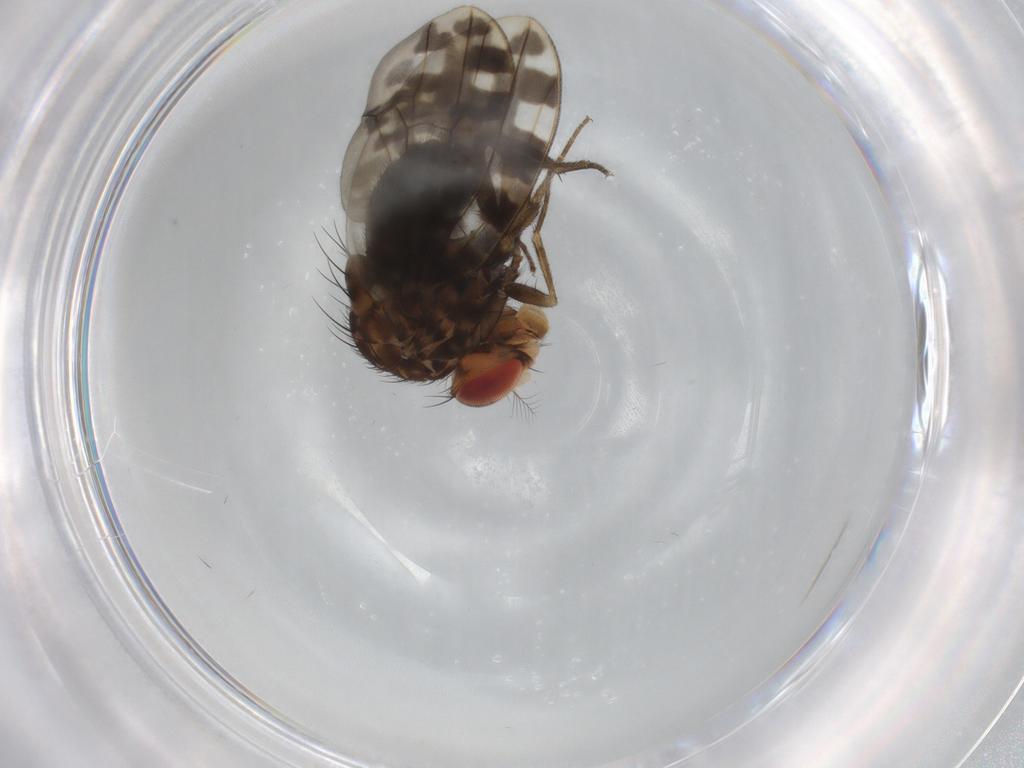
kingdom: Animalia
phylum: Arthropoda
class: Insecta
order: Diptera
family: Drosophilidae
